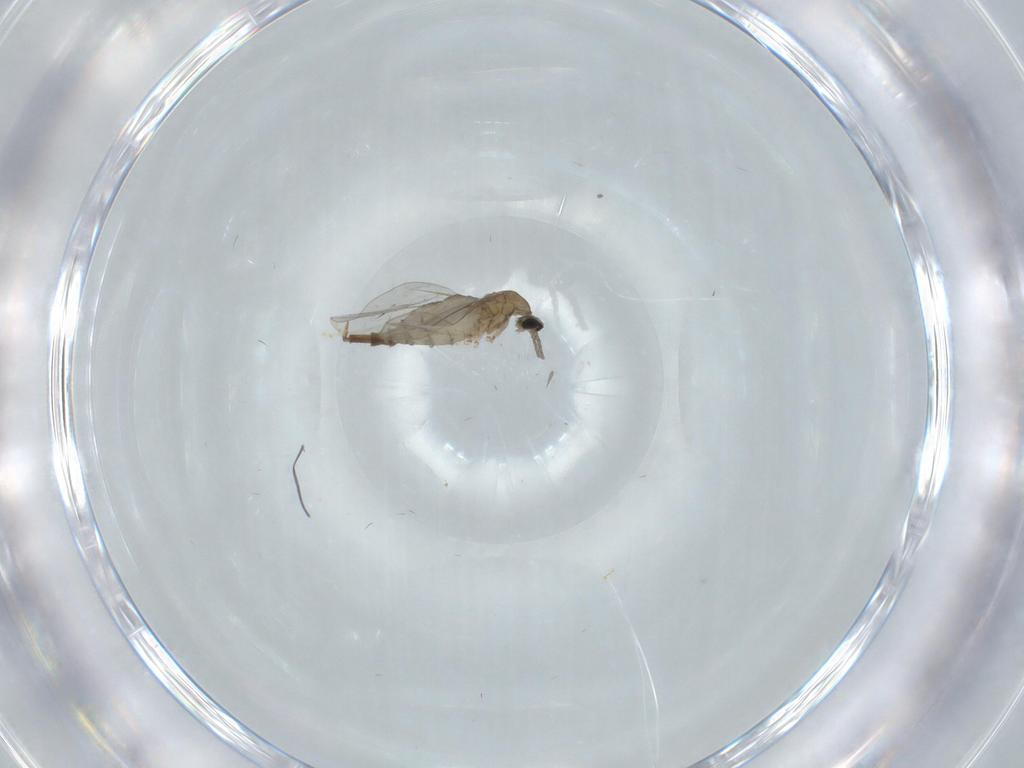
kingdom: Animalia
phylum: Arthropoda
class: Insecta
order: Diptera
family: Cecidomyiidae
